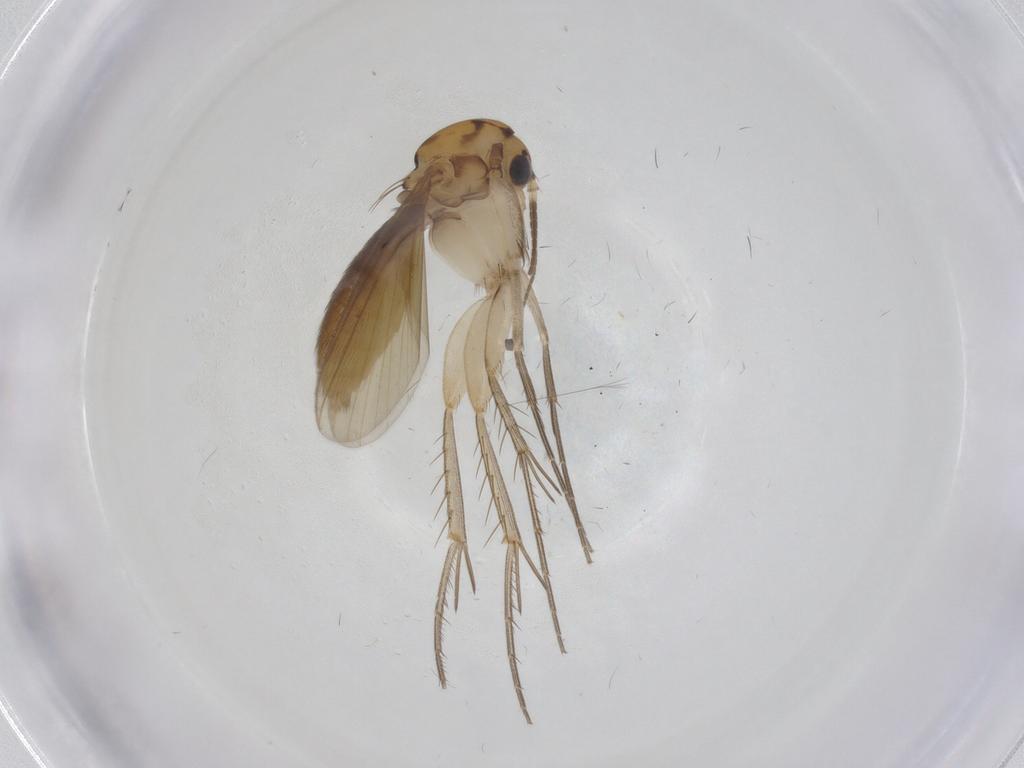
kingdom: Animalia
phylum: Arthropoda
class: Insecta
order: Diptera
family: Mycetophilidae
